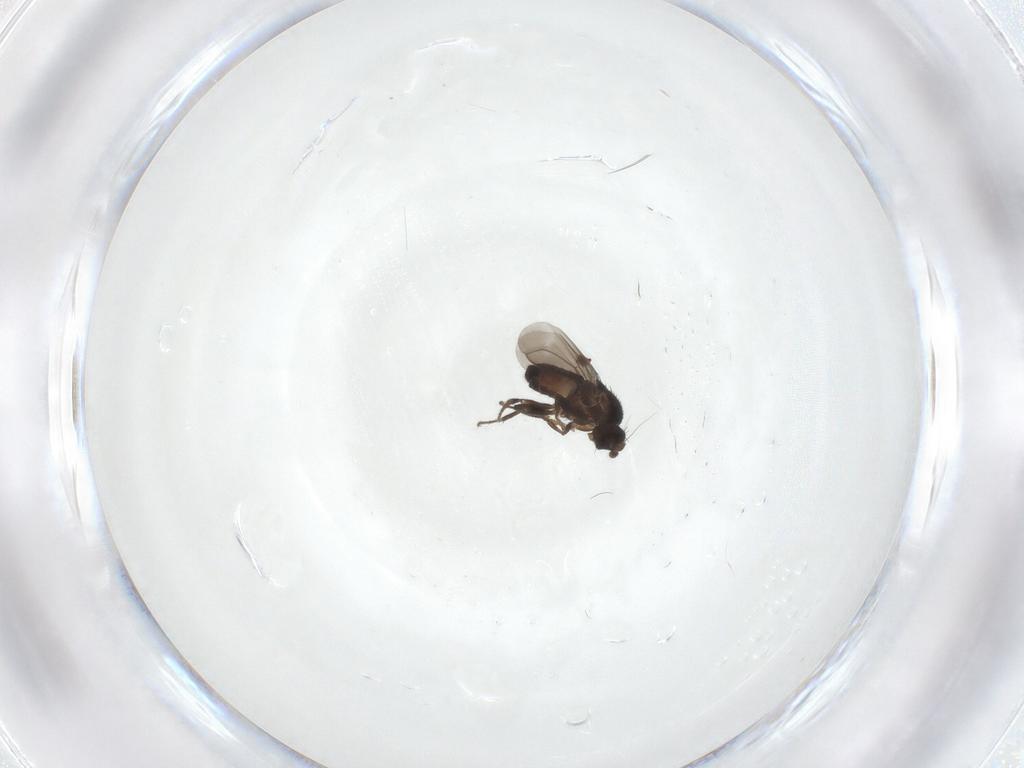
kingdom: Animalia
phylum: Arthropoda
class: Insecta
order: Diptera
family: Sphaeroceridae
